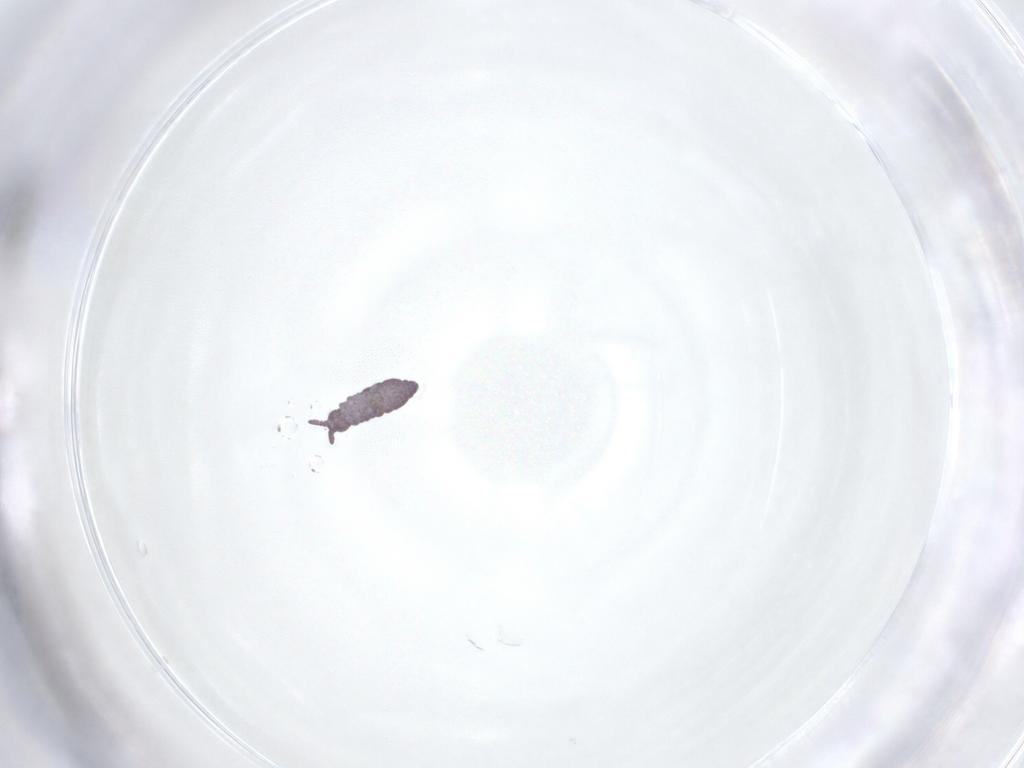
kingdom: Animalia
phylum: Arthropoda
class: Collembola
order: Poduromorpha
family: Hypogastruridae
